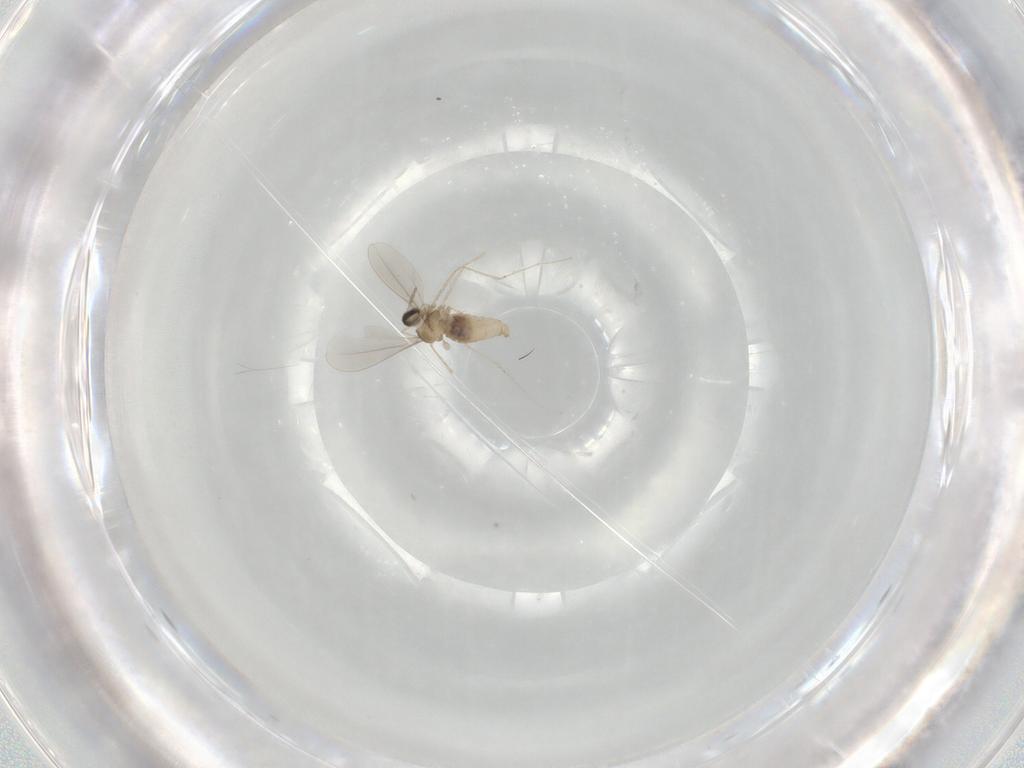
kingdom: Animalia
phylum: Arthropoda
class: Insecta
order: Diptera
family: Cecidomyiidae
